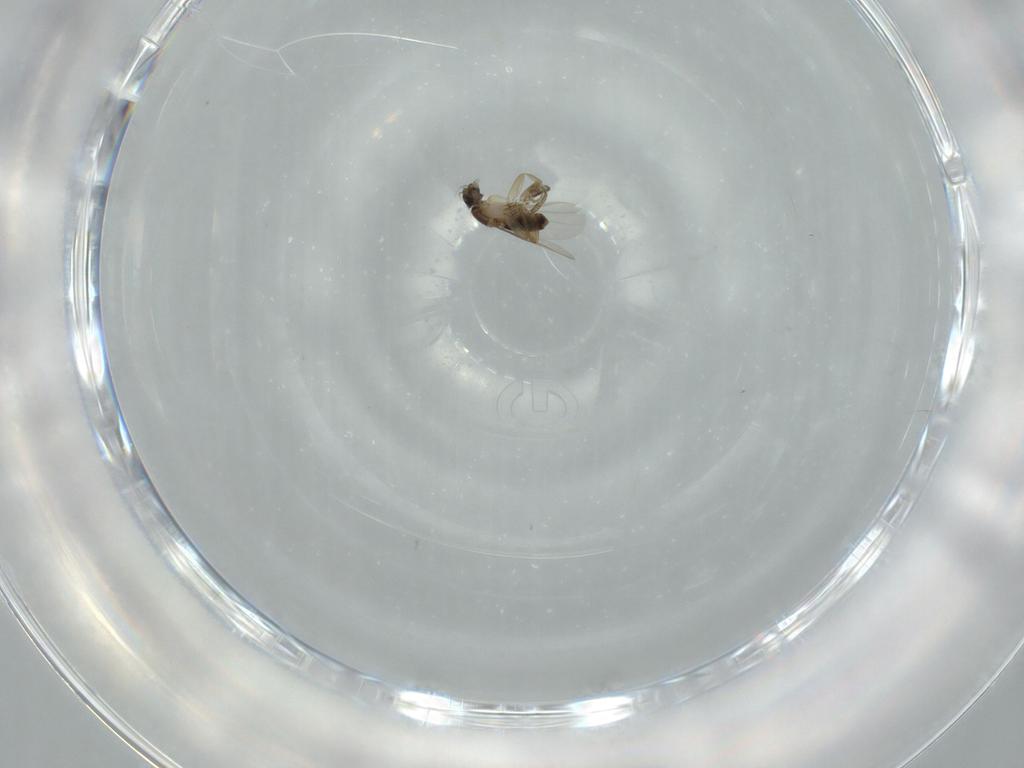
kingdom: Animalia
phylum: Arthropoda
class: Insecta
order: Diptera
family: Phoridae
